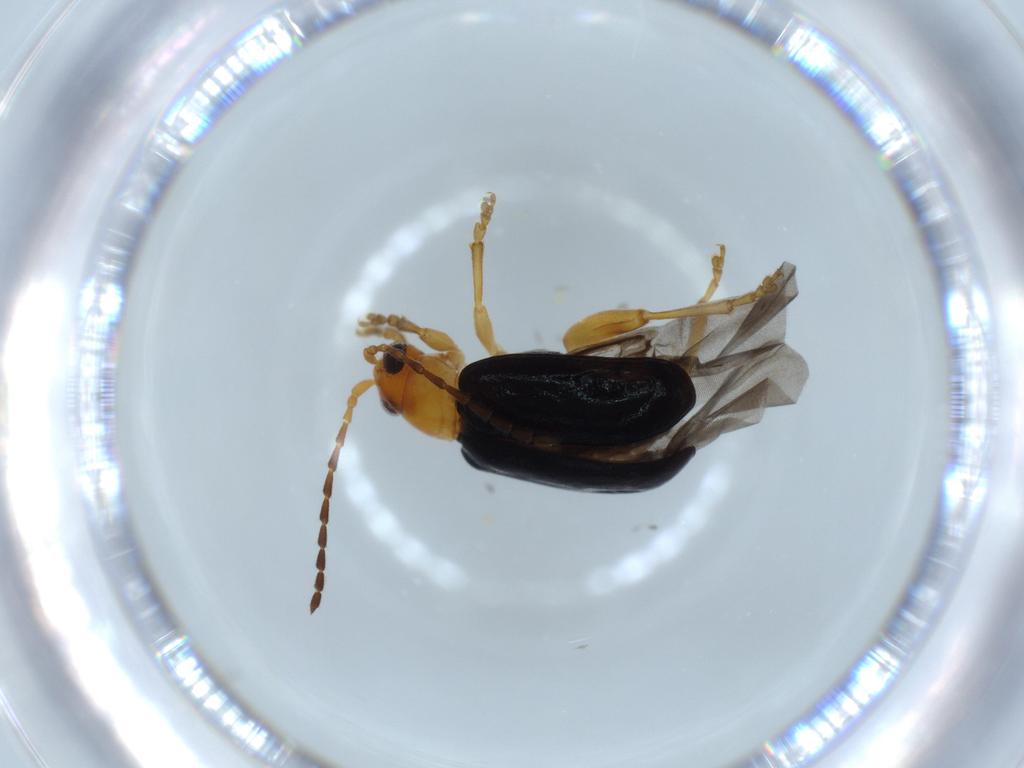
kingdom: Animalia
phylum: Arthropoda
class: Insecta
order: Coleoptera
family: Chrysomelidae
